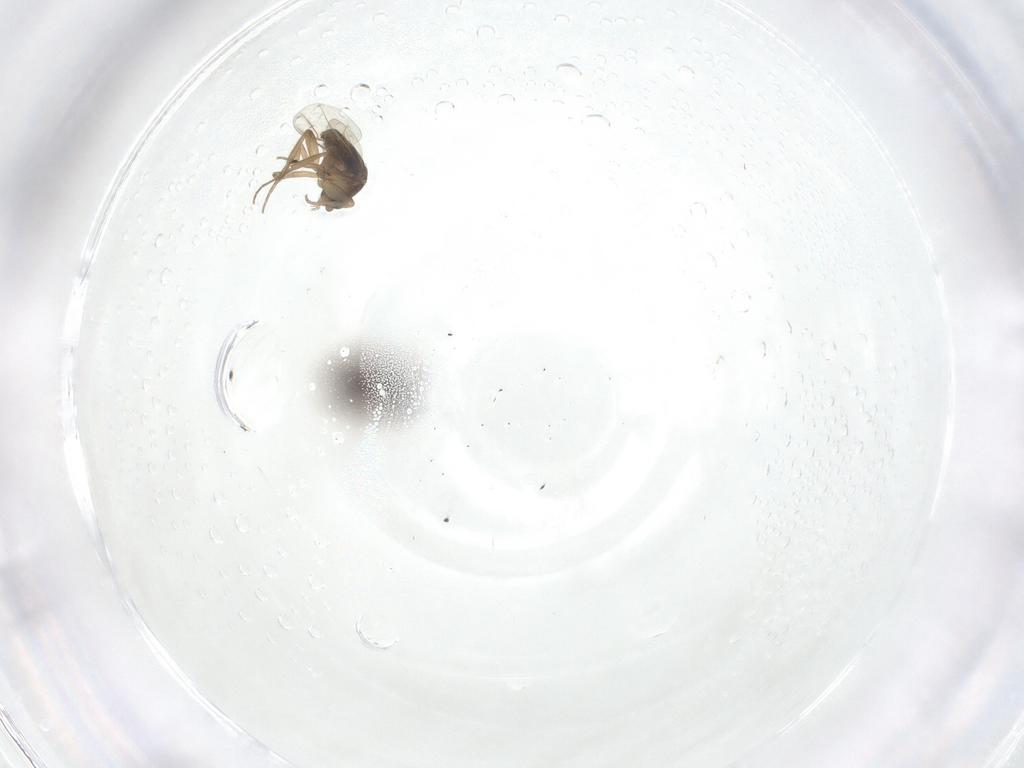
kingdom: Animalia
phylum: Arthropoda
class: Insecta
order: Diptera
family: Phoridae
